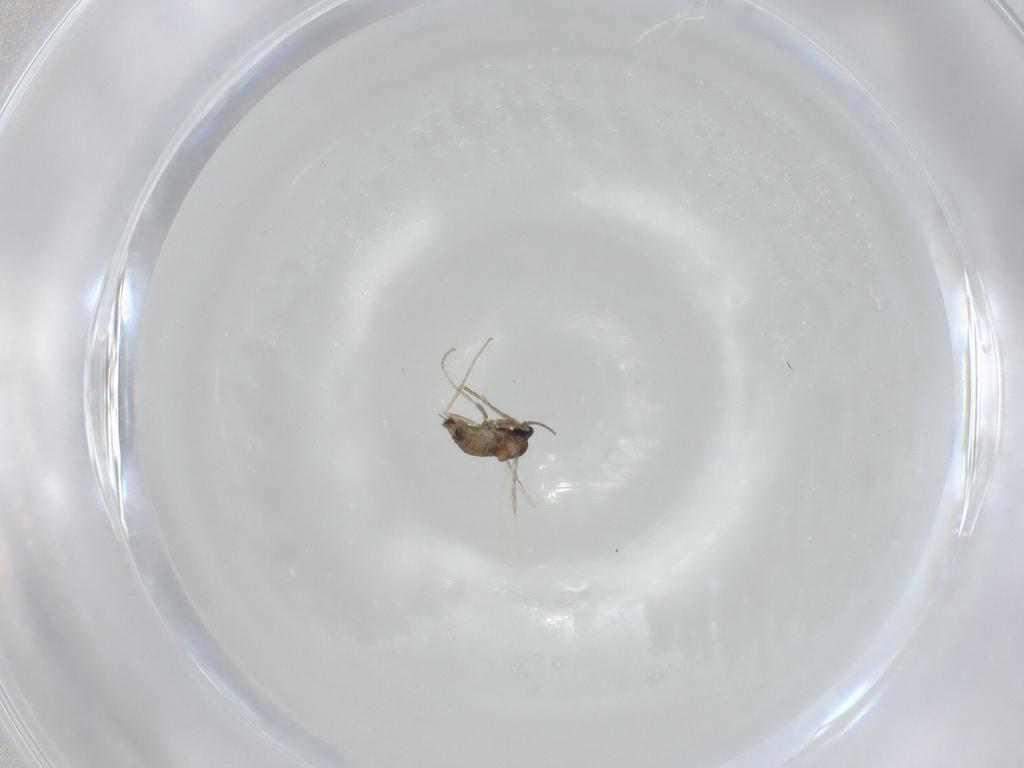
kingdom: Animalia
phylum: Arthropoda
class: Insecta
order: Diptera
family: Cecidomyiidae
